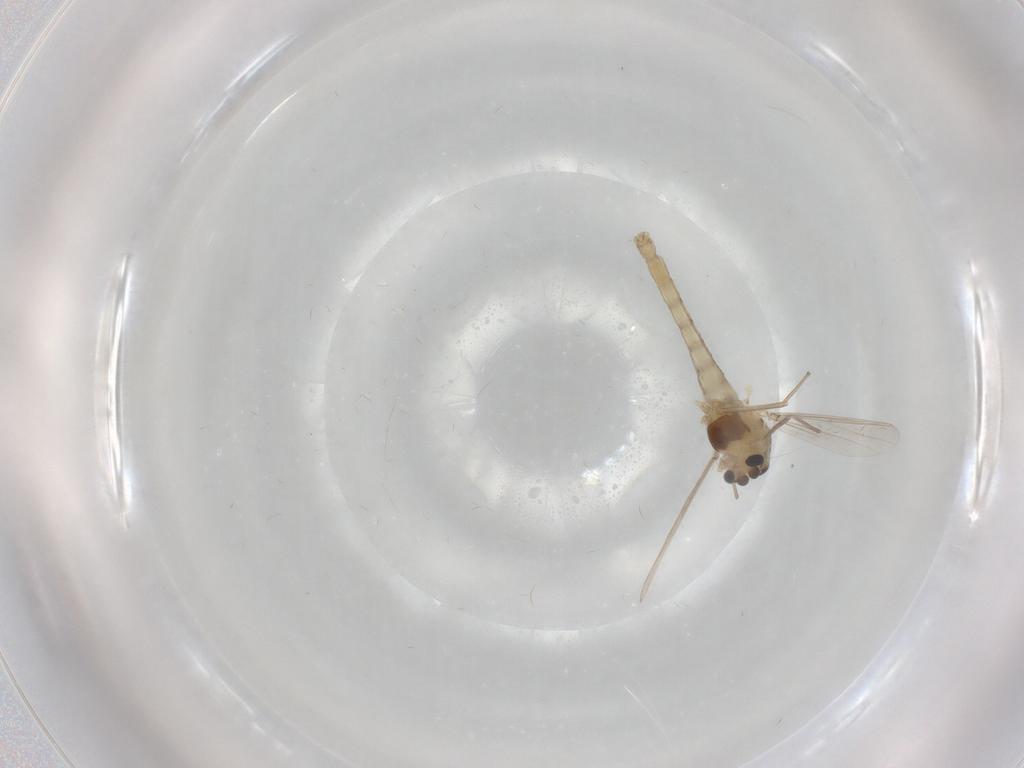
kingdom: Animalia
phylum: Arthropoda
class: Insecta
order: Diptera
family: Chironomidae
